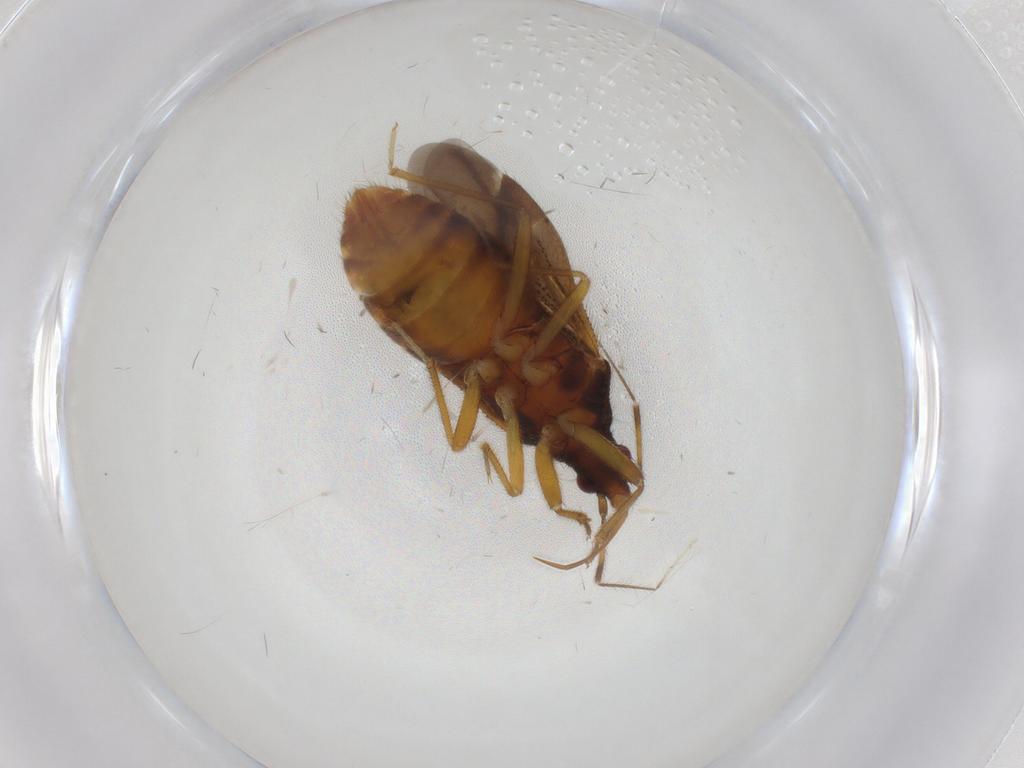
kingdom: Animalia
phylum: Arthropoda
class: Insecta
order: Hemiptera
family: Anthocoridae
